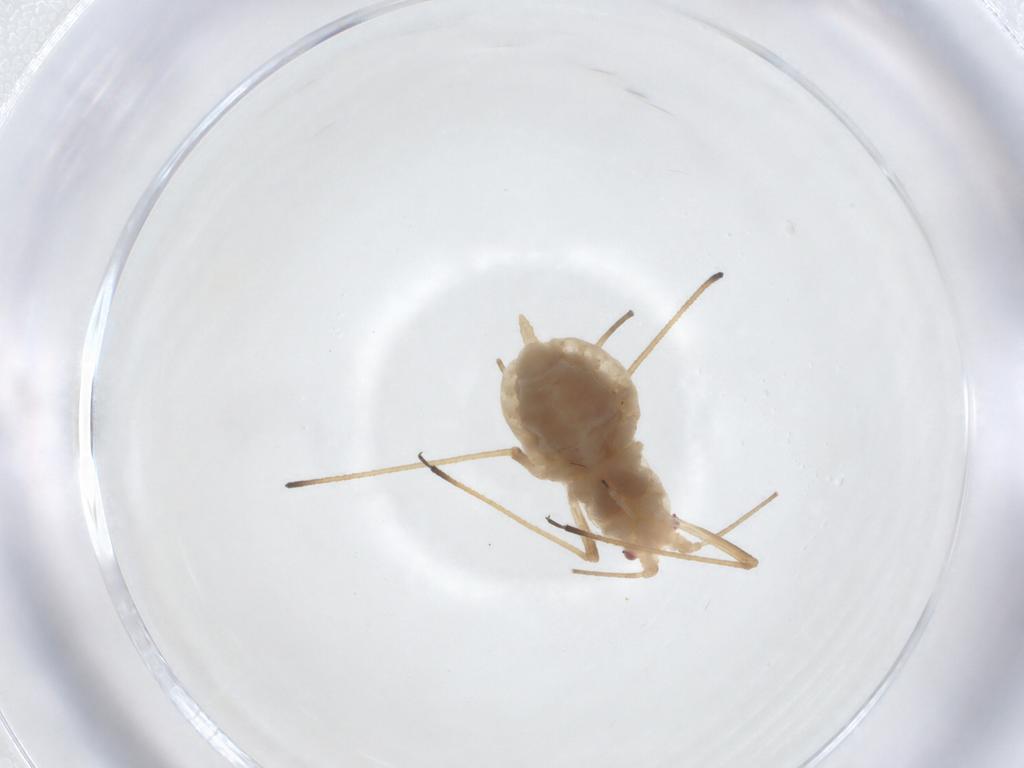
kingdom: Animalia
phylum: Arthropoda
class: Insecta
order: Hemiptera
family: Aphididae
